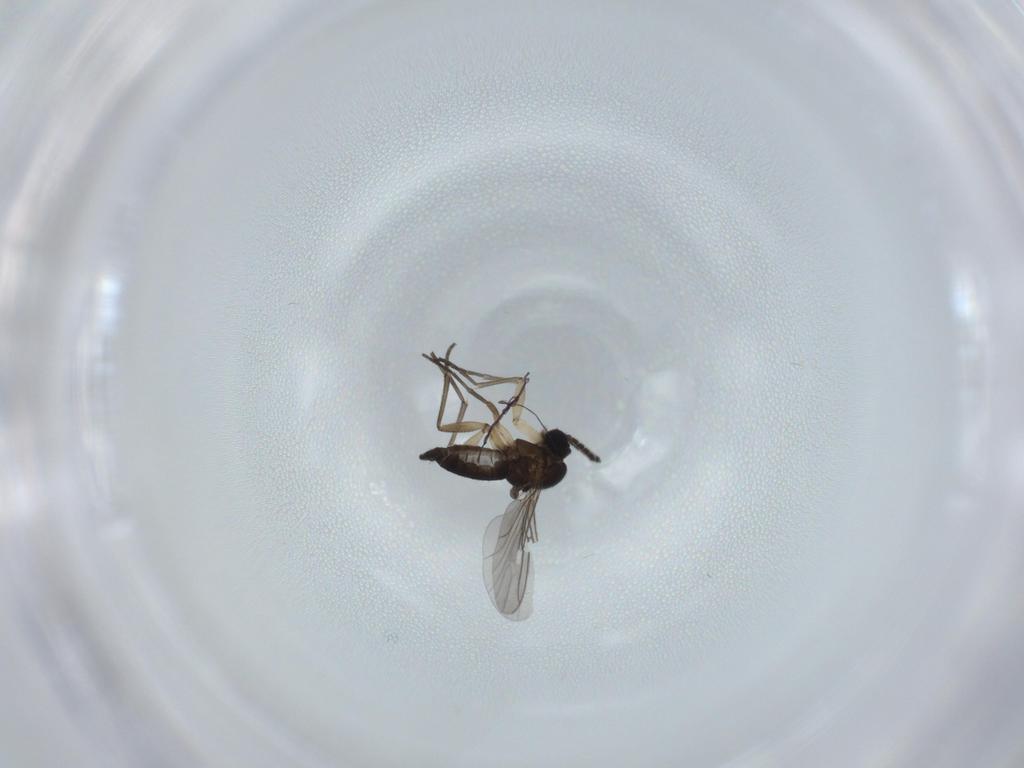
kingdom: Animalia
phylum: Arthropoda
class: Insecta
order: Diptera
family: Sciaridae
